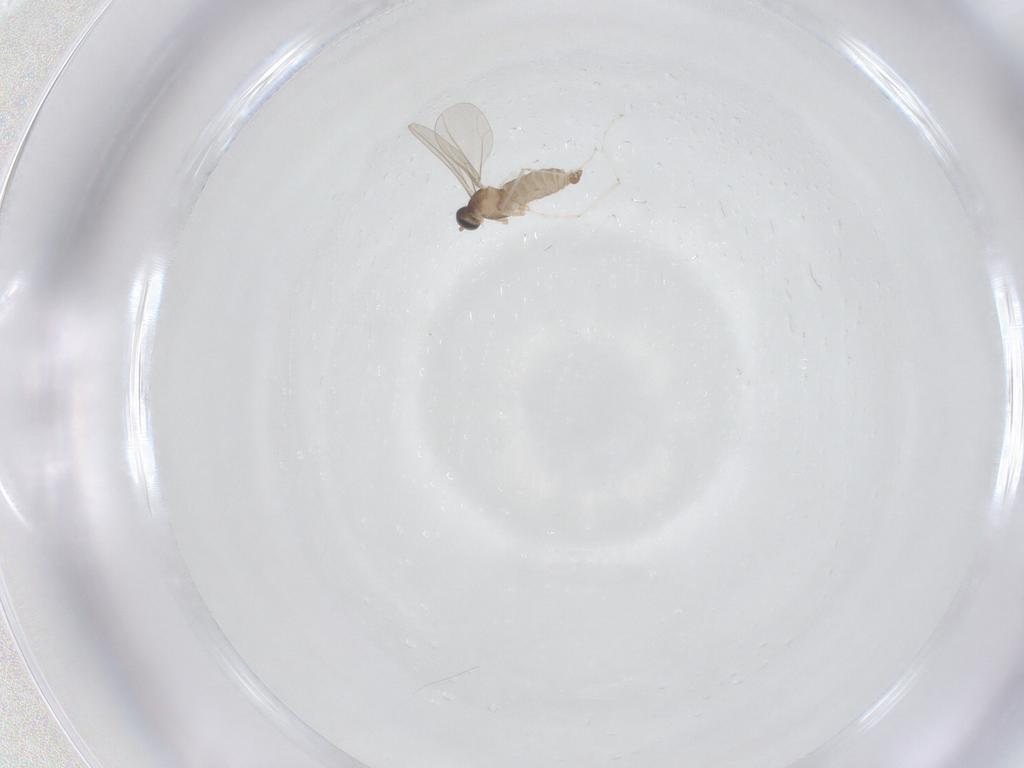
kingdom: Animalia
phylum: Arthropoda
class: Insecta
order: Diptera
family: Cecidomyiidae
